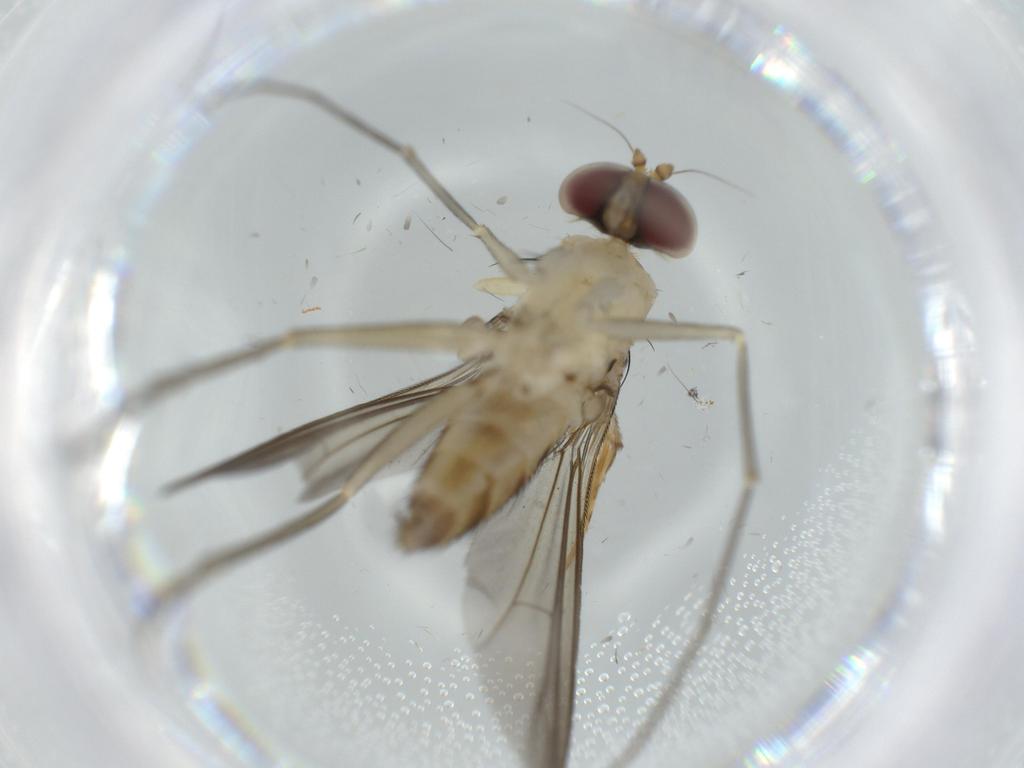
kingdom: Animalia
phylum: Arthropoda
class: Insecta
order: Diptera
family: Dolichopodidae
